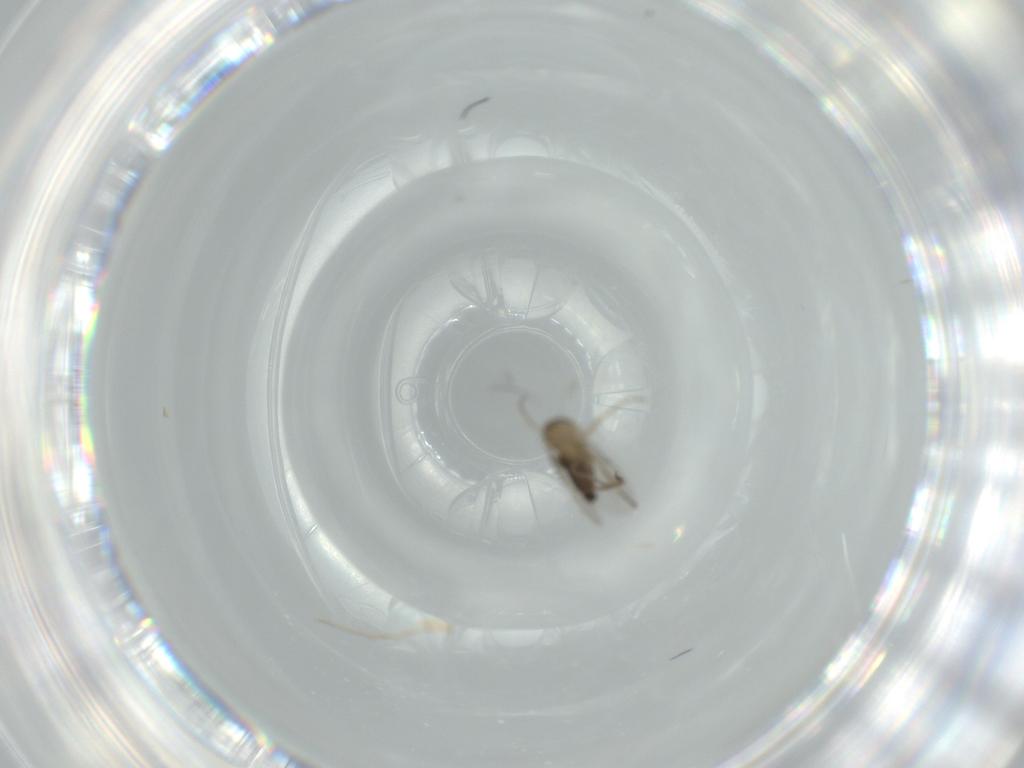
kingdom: Animalia
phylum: Arthropoda
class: Insecta
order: Diptera
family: Phoridae
